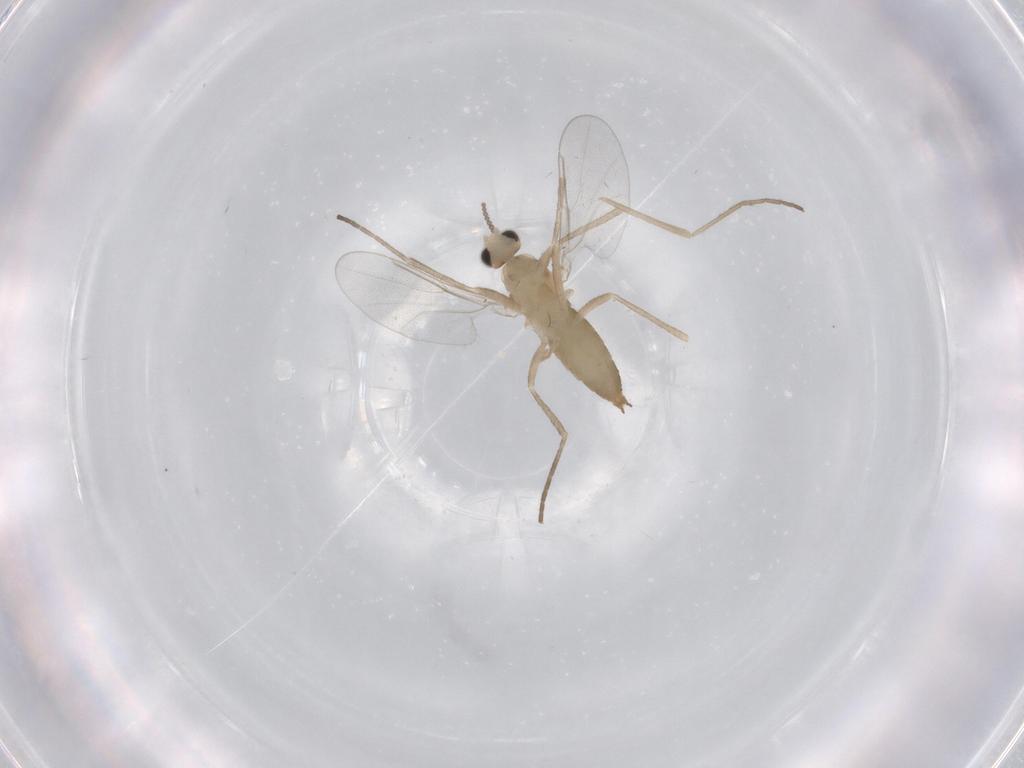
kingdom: Animalia
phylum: Arthropoda
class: Insecta
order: Diptera
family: Cecidomyiidae
